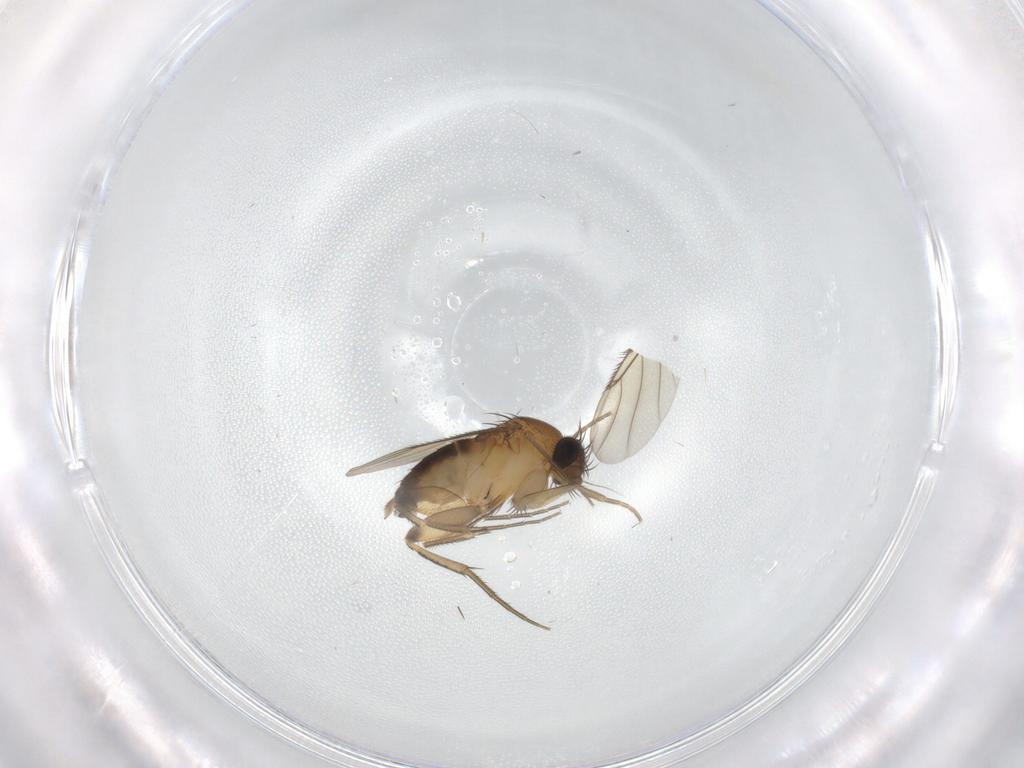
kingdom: Animalia
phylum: Arthropoda
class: Insecta
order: Diptera
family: Phoridae
